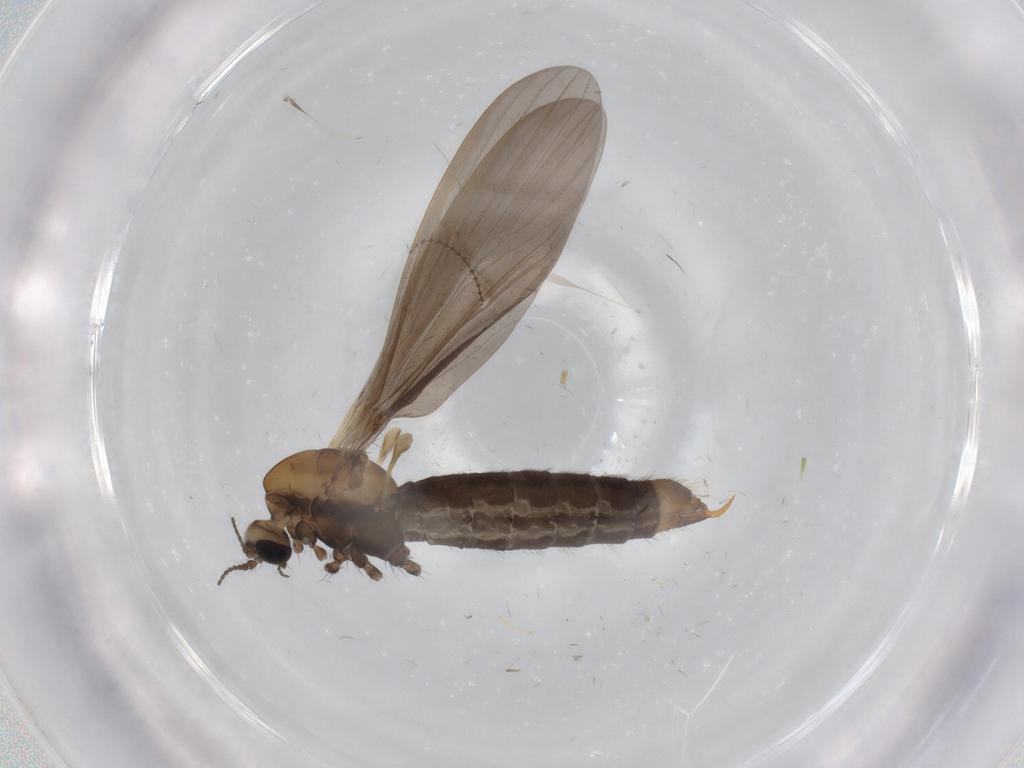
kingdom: Animalia
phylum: Arthropoda
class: Insecta
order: Diptera
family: Limoniidae
